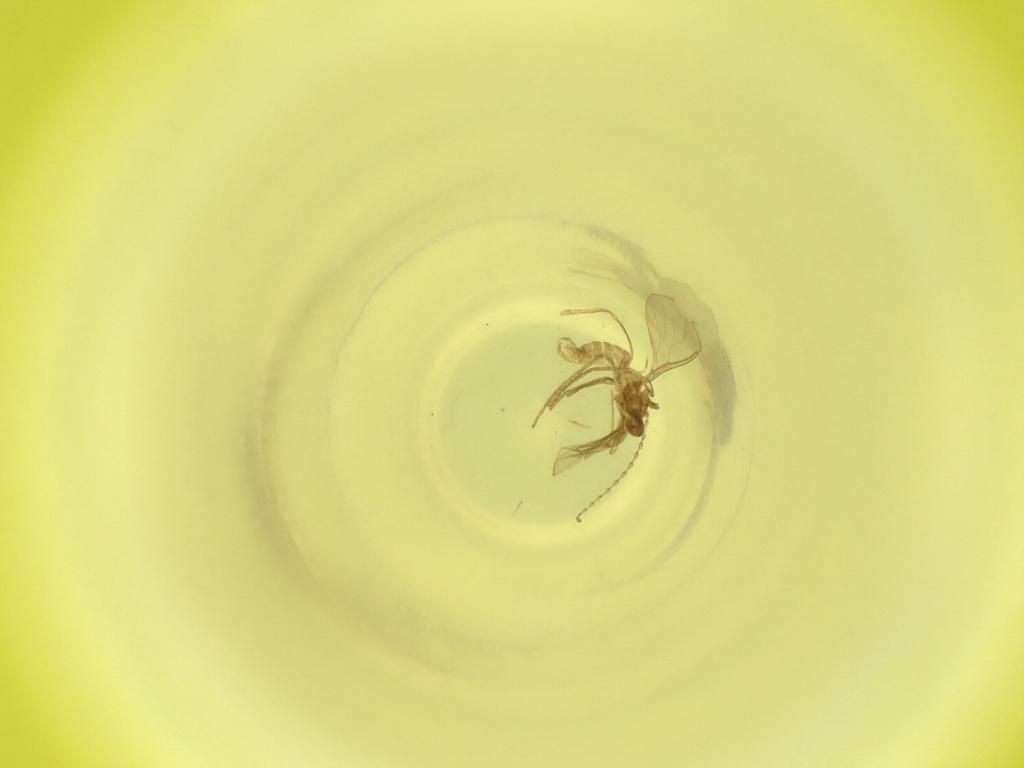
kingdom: Animalia
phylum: Arthropoda
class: Insecta
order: Diptera
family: Cecidomyiidae
